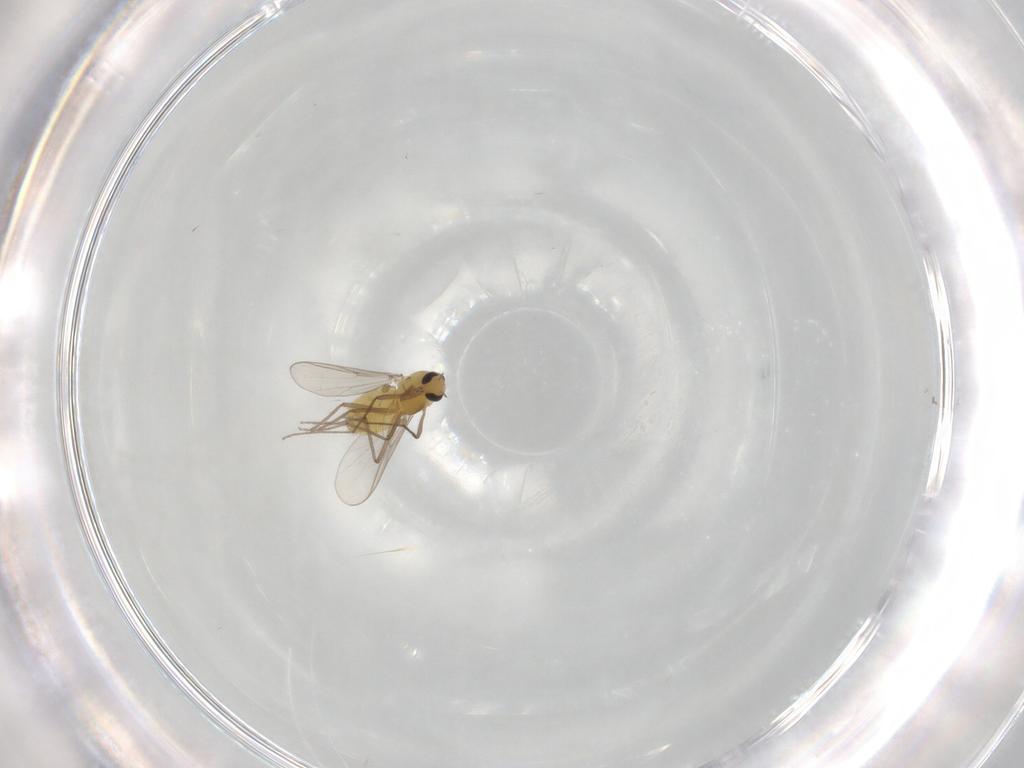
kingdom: Animalia
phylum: Arthropoda
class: Insecta
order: Diptera
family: Chironomidae
